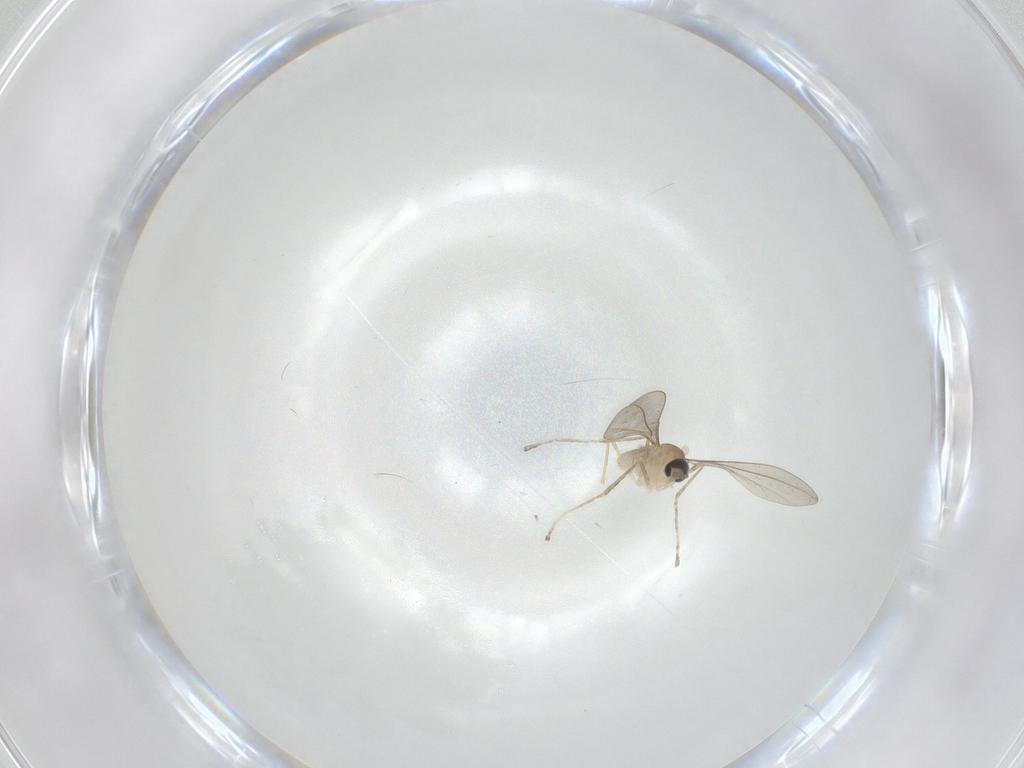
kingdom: Animalia
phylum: Arthropoda
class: Insecta
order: Diptera
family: Cecidomyiidae
